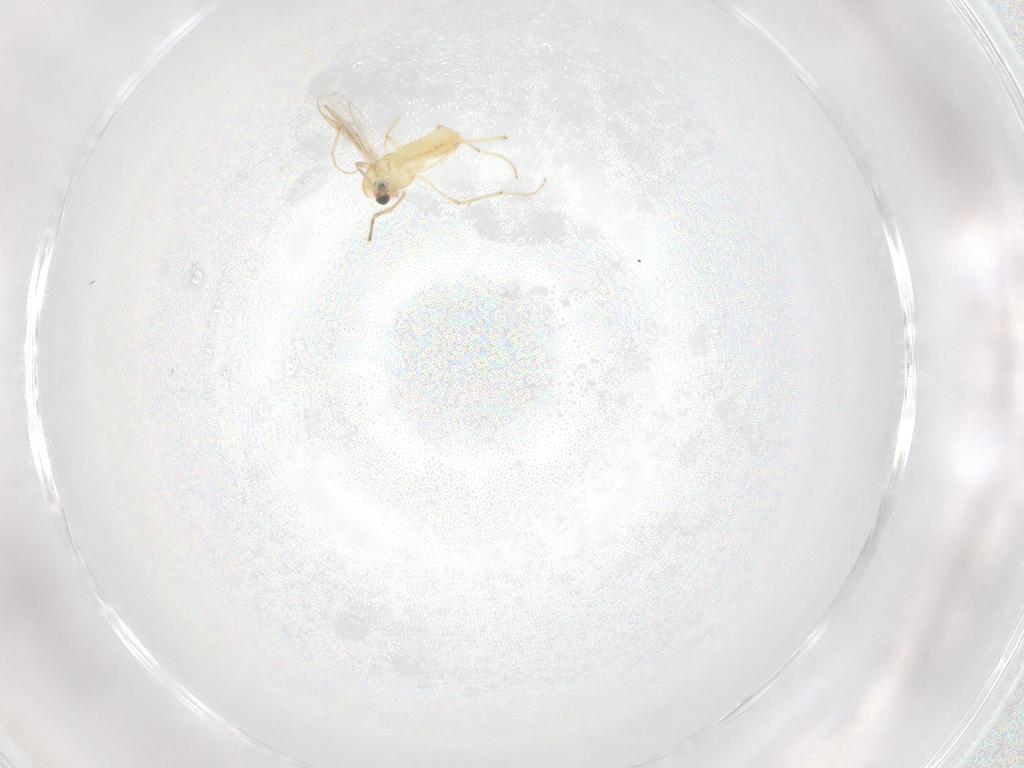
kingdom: Animalia
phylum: Arthropoda
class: Insecta
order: Diptera
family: Chironomidae
